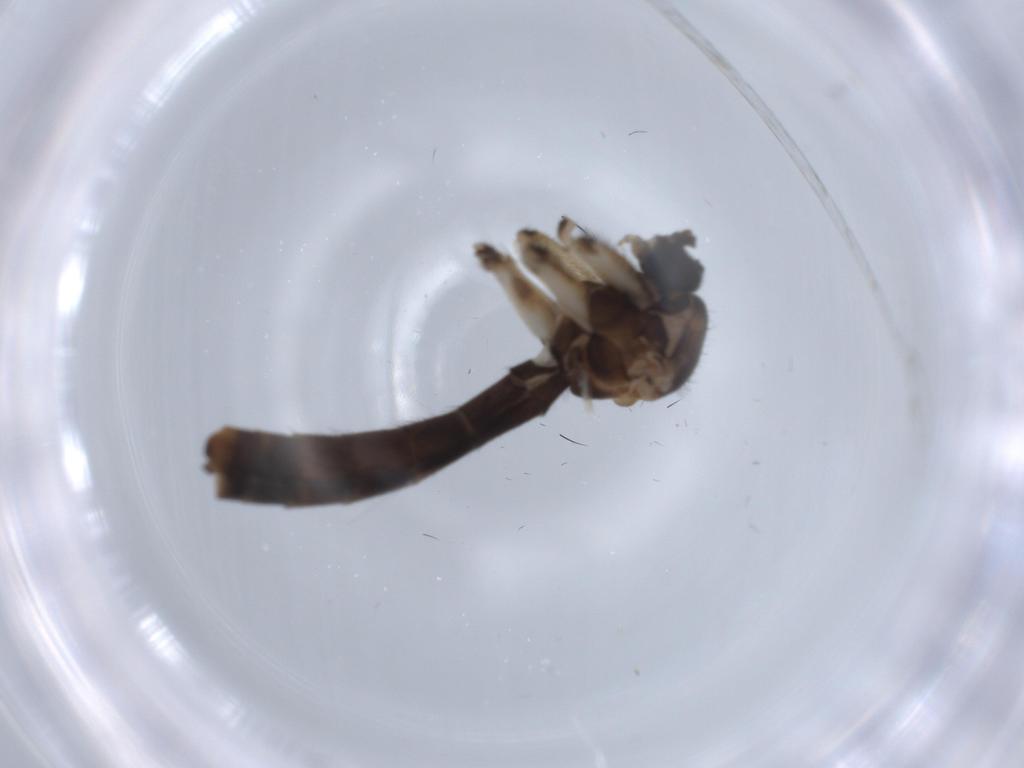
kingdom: Animalia
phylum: Arthropoda
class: Insecta
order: Diptera
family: Keroplatidae
